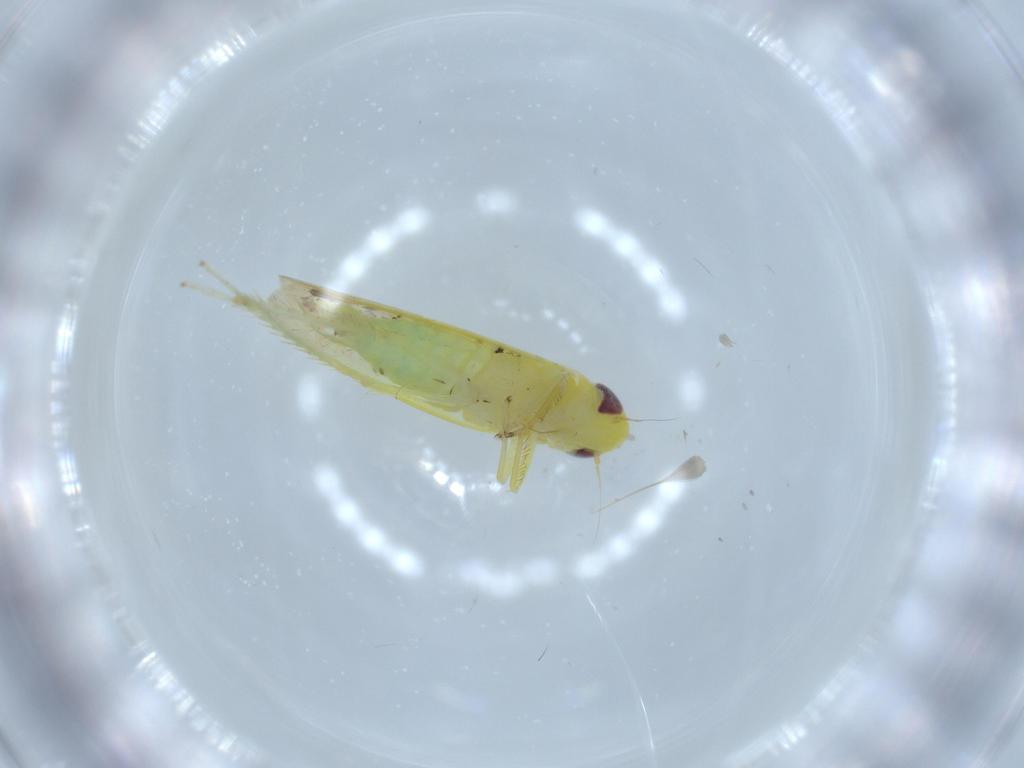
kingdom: Animalia
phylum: Arthropoda
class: Insecta
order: Hemiptera
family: Cicadellidae
